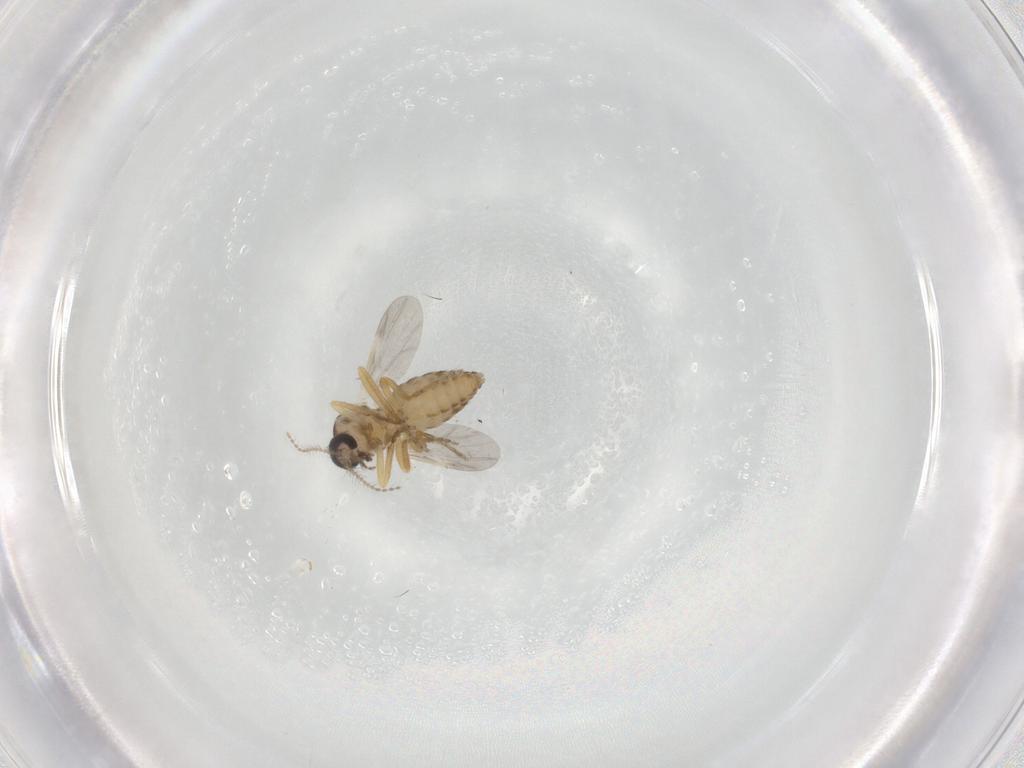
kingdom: Animalia
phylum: Arthropoda
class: Insecta
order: Diptera
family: Ceratopogonidae
